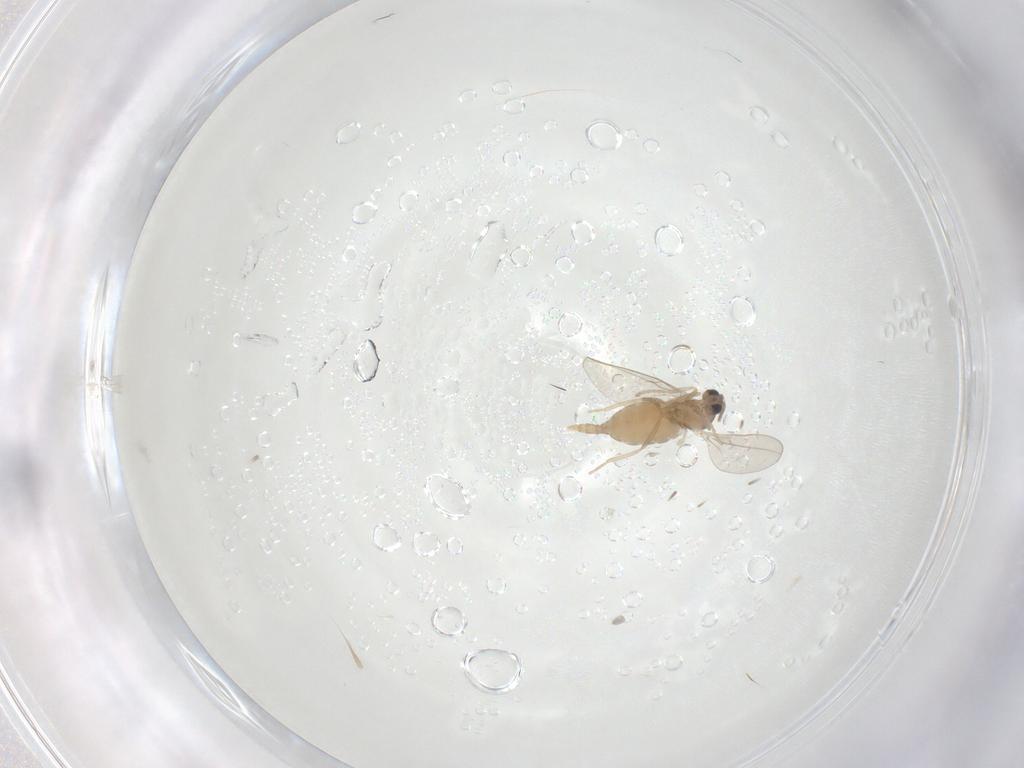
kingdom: Animalia
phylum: Arthropoda
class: Insecta
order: Diptera
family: Cecidomyiidae
